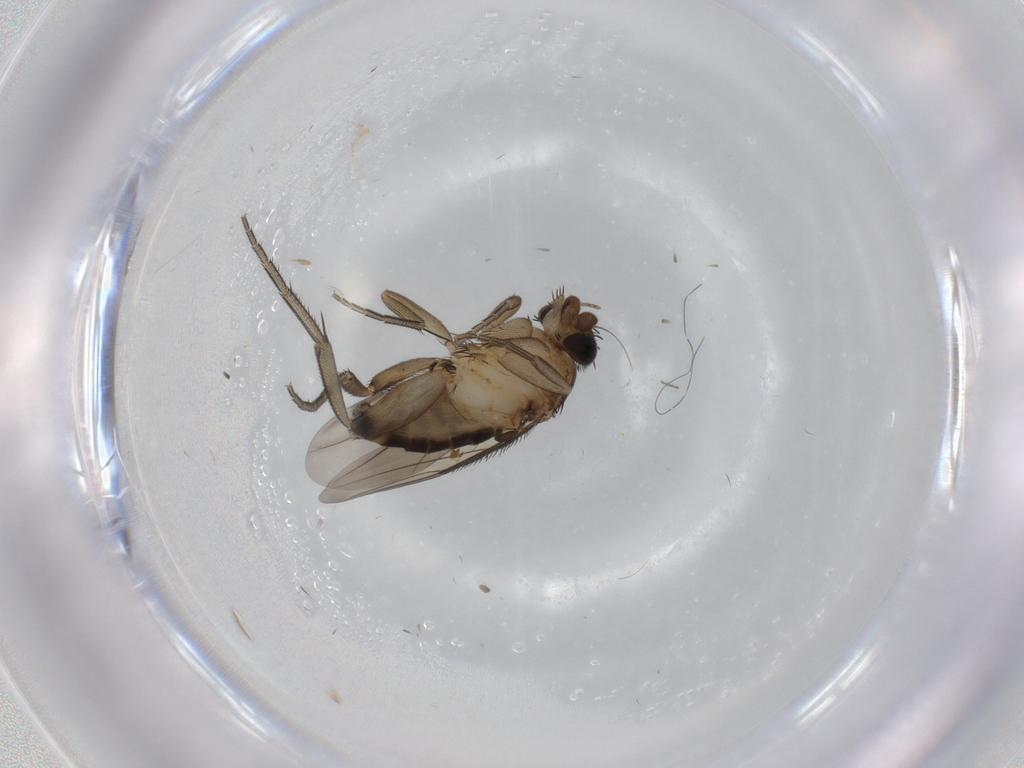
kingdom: Animalia
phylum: Arthropoda
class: Insecta
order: Diptera
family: Phoridae
